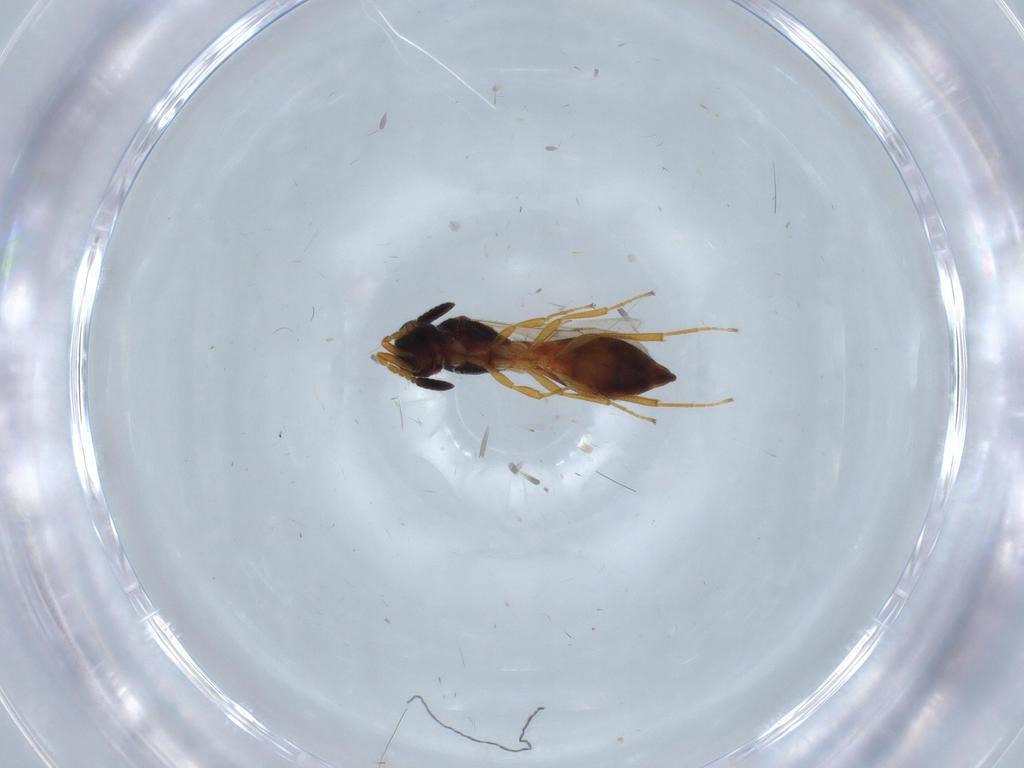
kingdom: Animalia
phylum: Arthropoda
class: Insecta
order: Hymenoptera
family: Scelionidae
